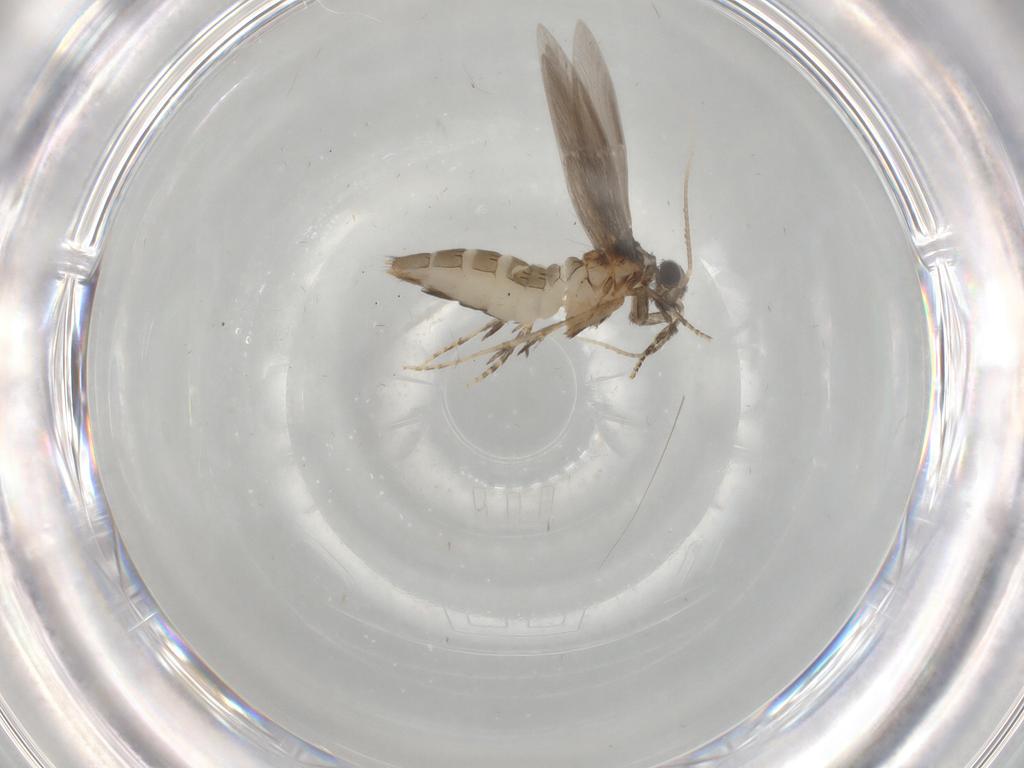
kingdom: Animalia
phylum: Arthropoda
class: Insecta
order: Trichoptera
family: Hydroptilidae
